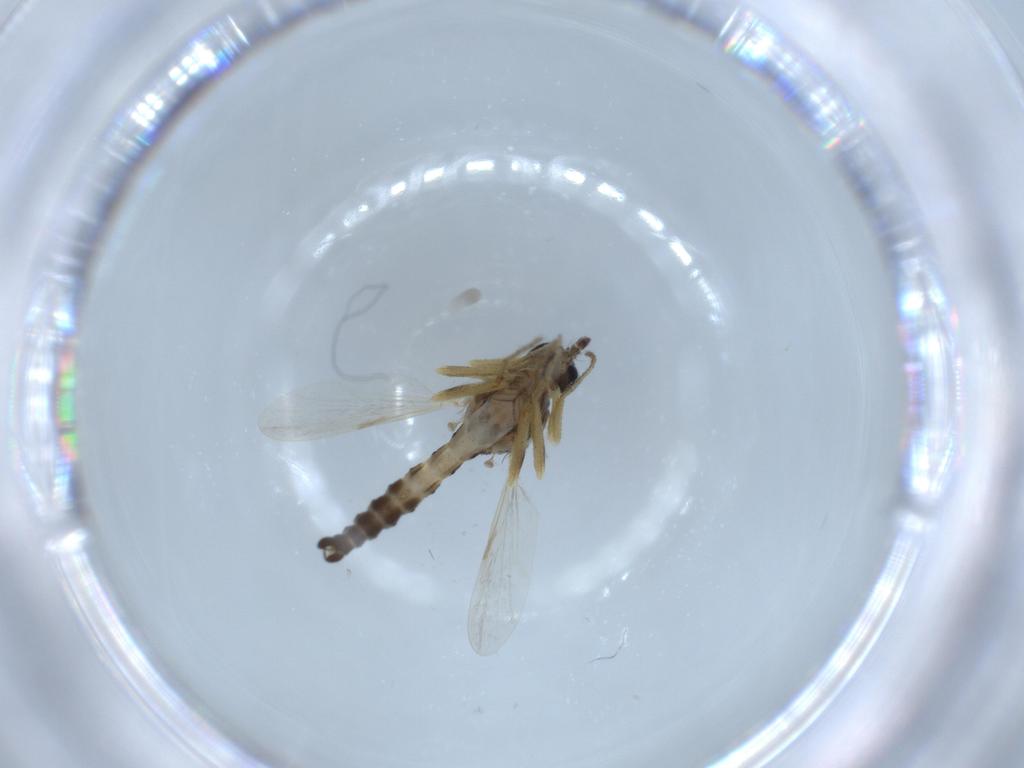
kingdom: Animalia
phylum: Arthropoda
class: Insecta
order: Diptera
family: Ceratopogonidae
